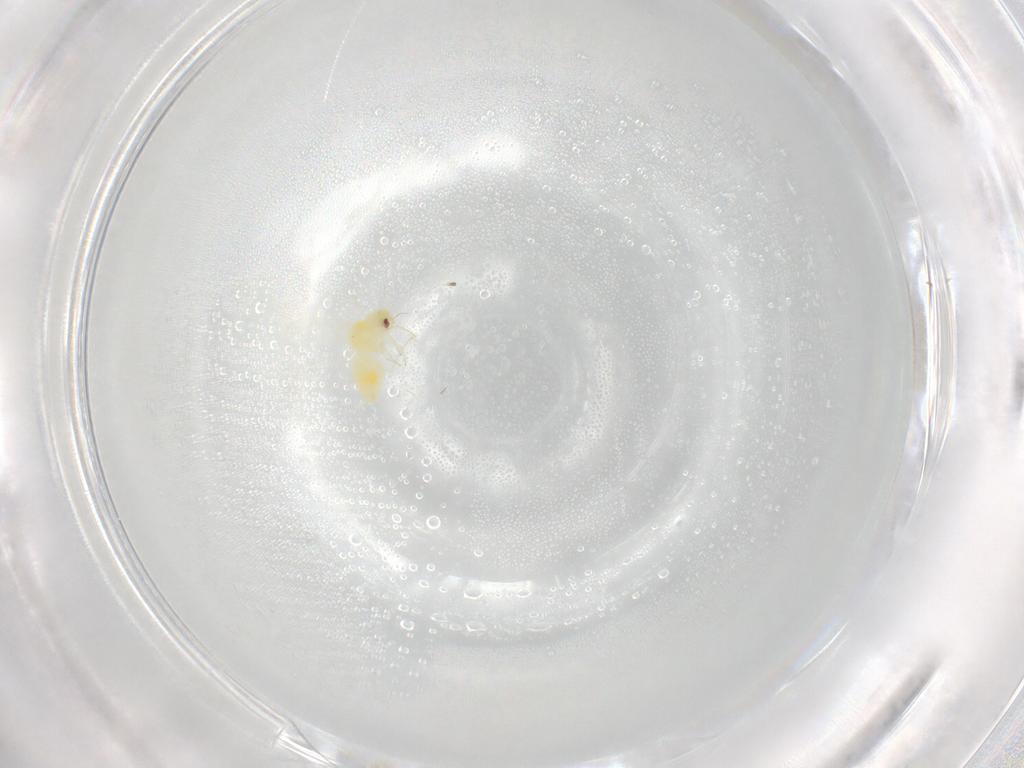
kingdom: Animalia
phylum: Arthropoda
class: Insecta
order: Hemiptera
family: Aleyrodidae
